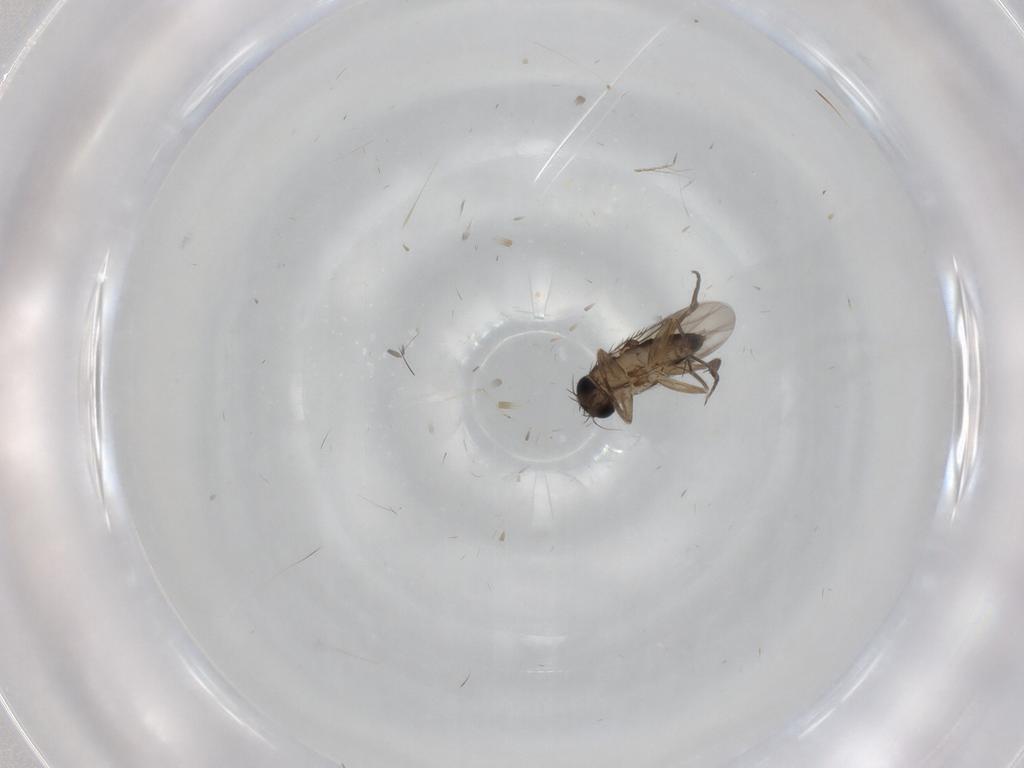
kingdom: Animalia
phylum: Arthropoda
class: Insecta
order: Diptera
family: Phoridae
